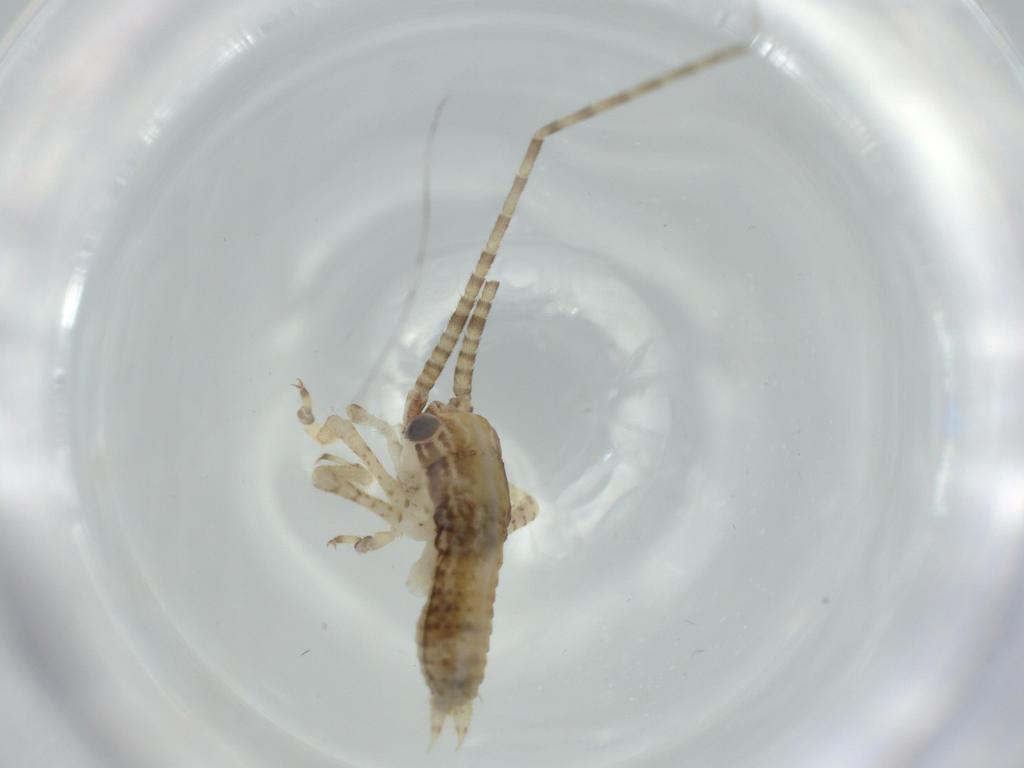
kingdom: Animalia
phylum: Arthropoda
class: Insecta
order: Orthoptera
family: Gryllidae
